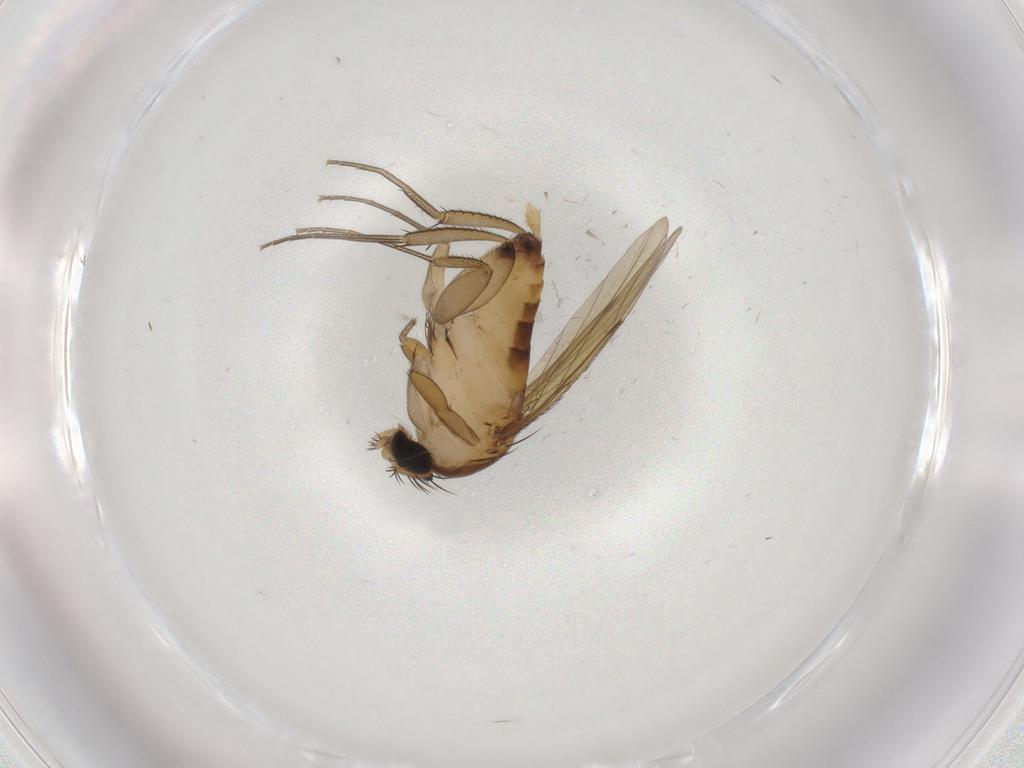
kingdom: Animalia
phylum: Arthropoda
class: Insecta
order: Diptera
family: Phoridae
